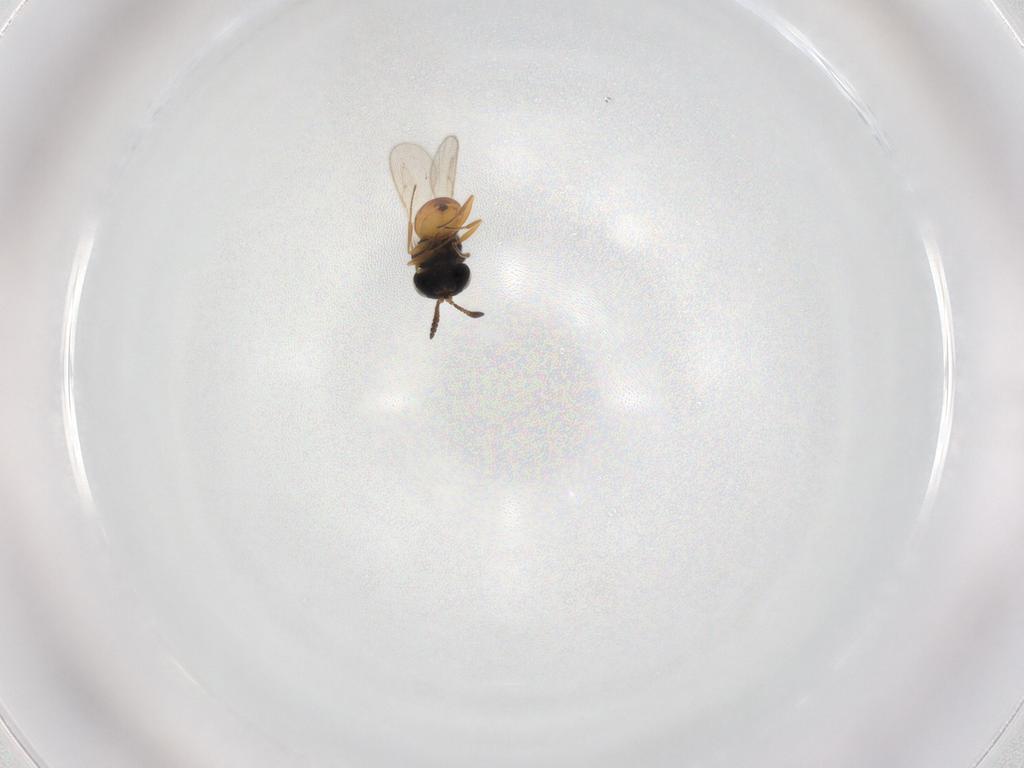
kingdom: Animalia
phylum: Arthropoda
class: Insecta
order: Hymenoptera
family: Scelionidae
